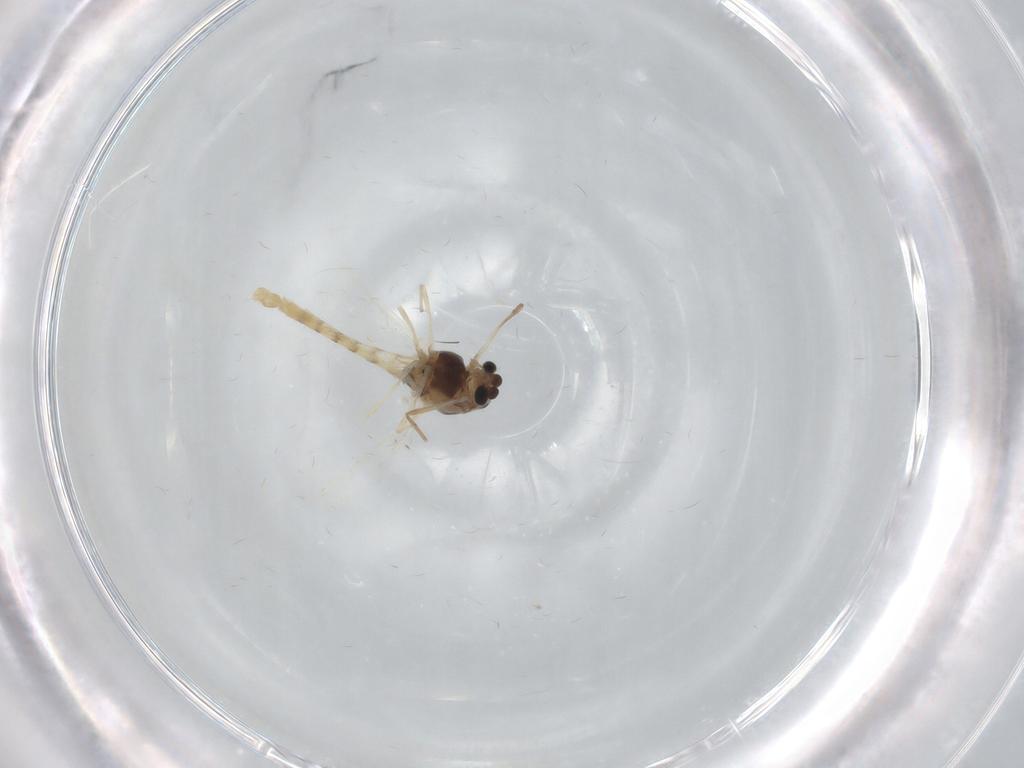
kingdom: Animalia
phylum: Arthropoda
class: Insecta
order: Diptera
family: Chironomidae
